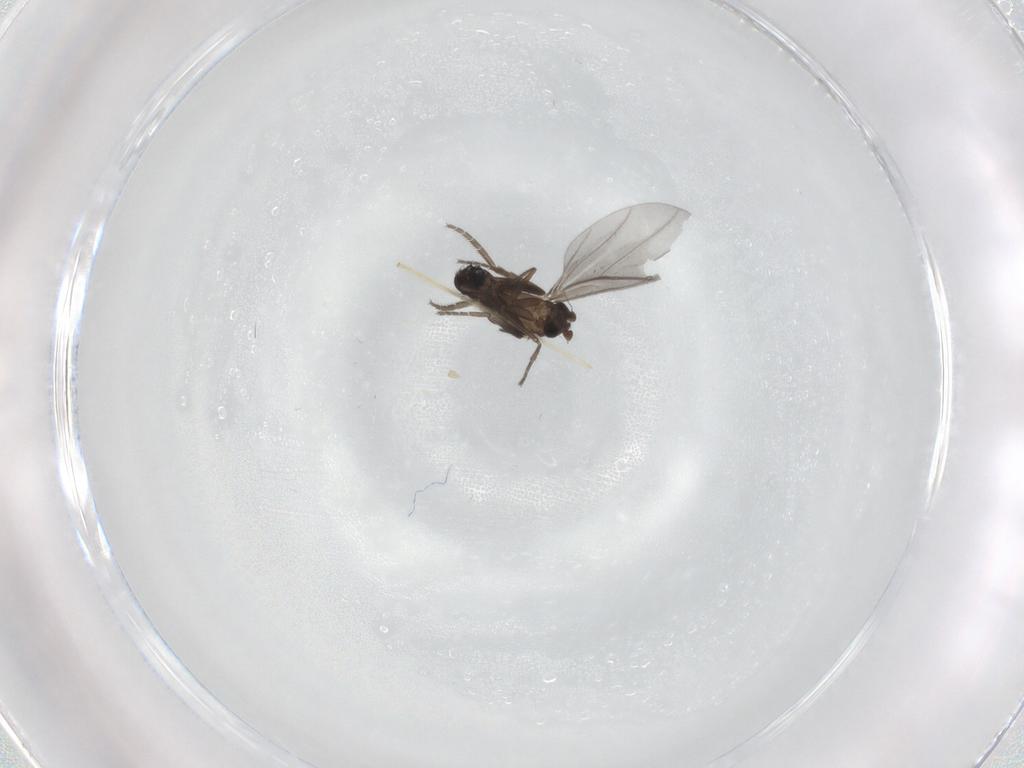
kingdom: Animalia
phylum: Arthropoda
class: Insecta
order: Diptera
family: Phoridae
